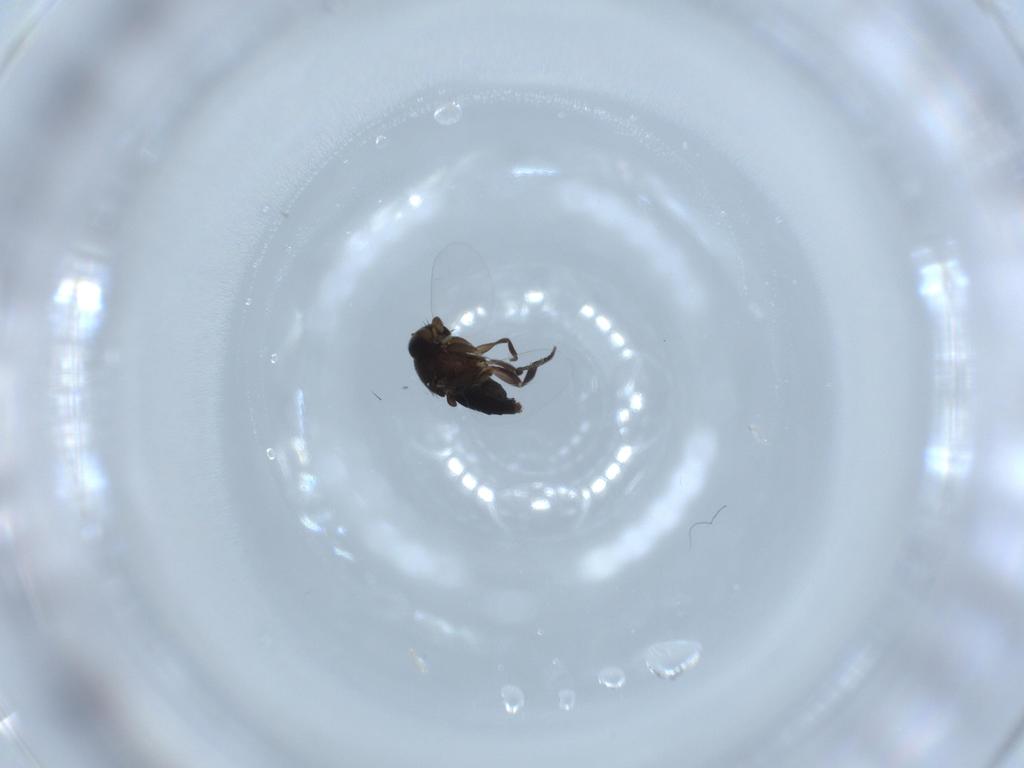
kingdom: Animalia
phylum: Arthropoda
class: Insecta
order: Diptera
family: Phoridae
